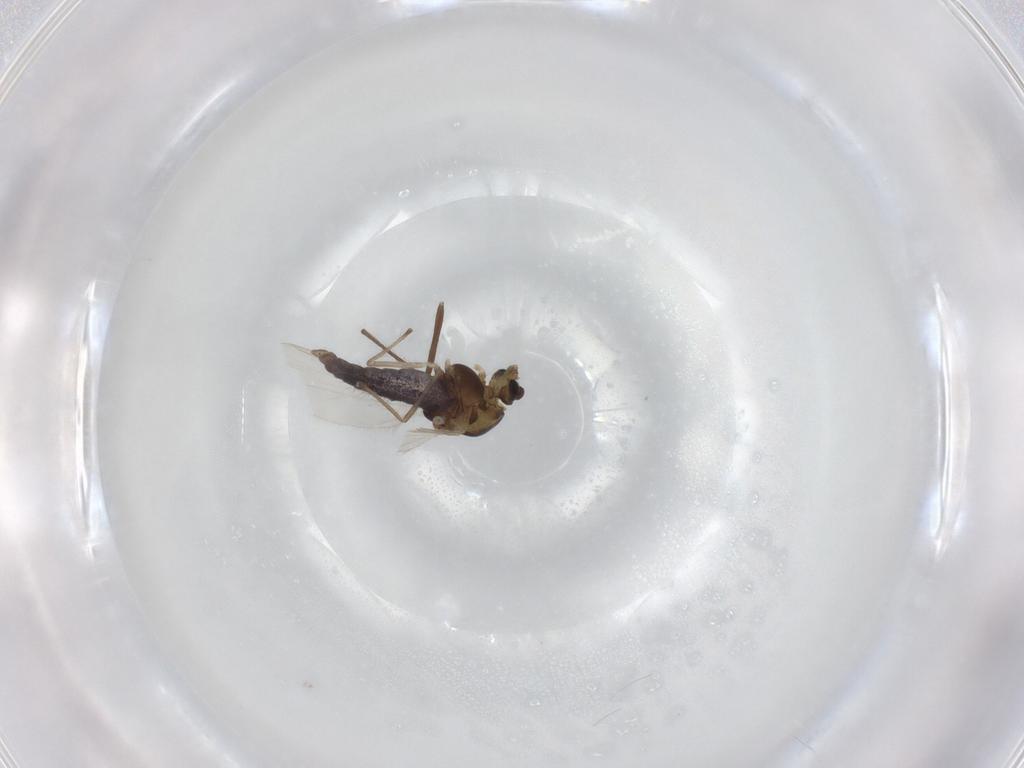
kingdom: Animalia
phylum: Arthropoda
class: Insecta
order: Diptera
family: Chironomidae
